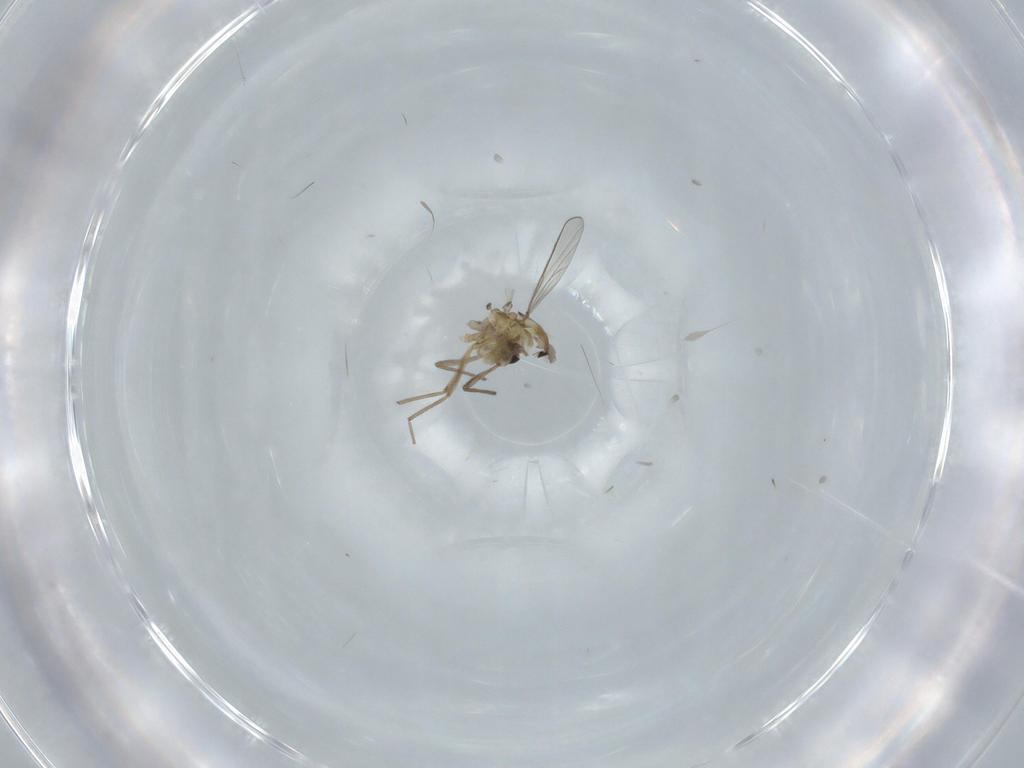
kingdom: Animalia
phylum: Arthropoda
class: Insecta
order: Diptera
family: Chironomidae
